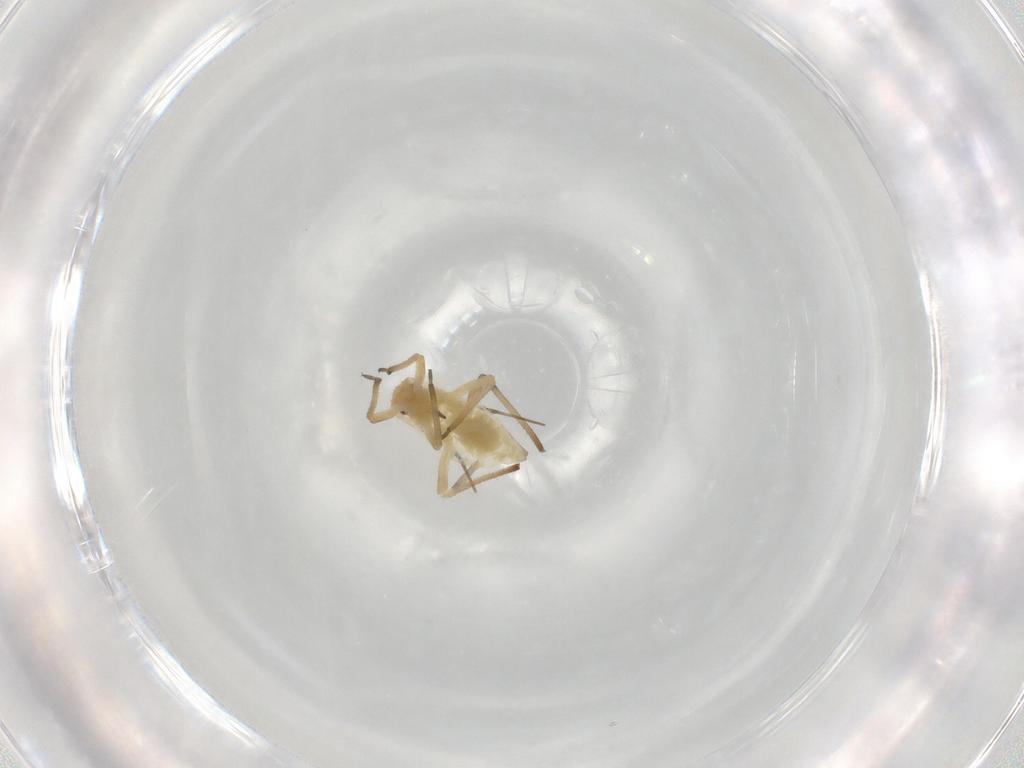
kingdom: Animalia
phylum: Arthropoda
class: Insecta
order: Hemiptera
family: Aphididae
